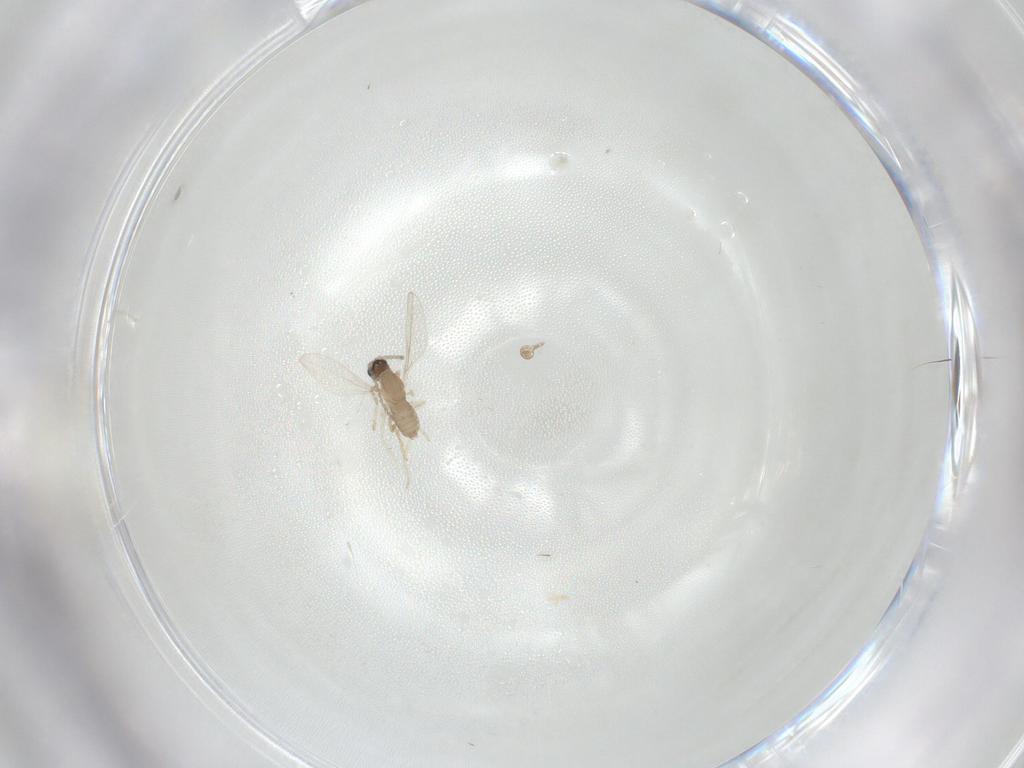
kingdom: Animalia
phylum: Arthropoda
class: Insecta
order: Diptera
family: Cecidomyiidae
